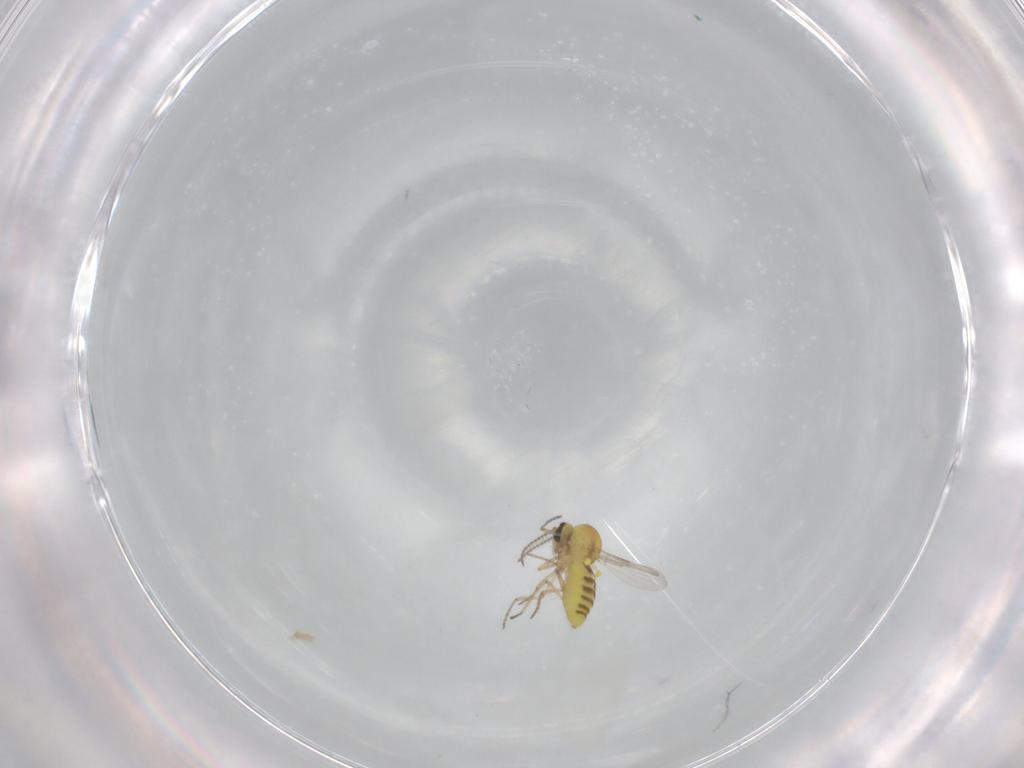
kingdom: Animalia
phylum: Arthropoda
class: Insecta
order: Diptera
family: Ceratopogonidae
